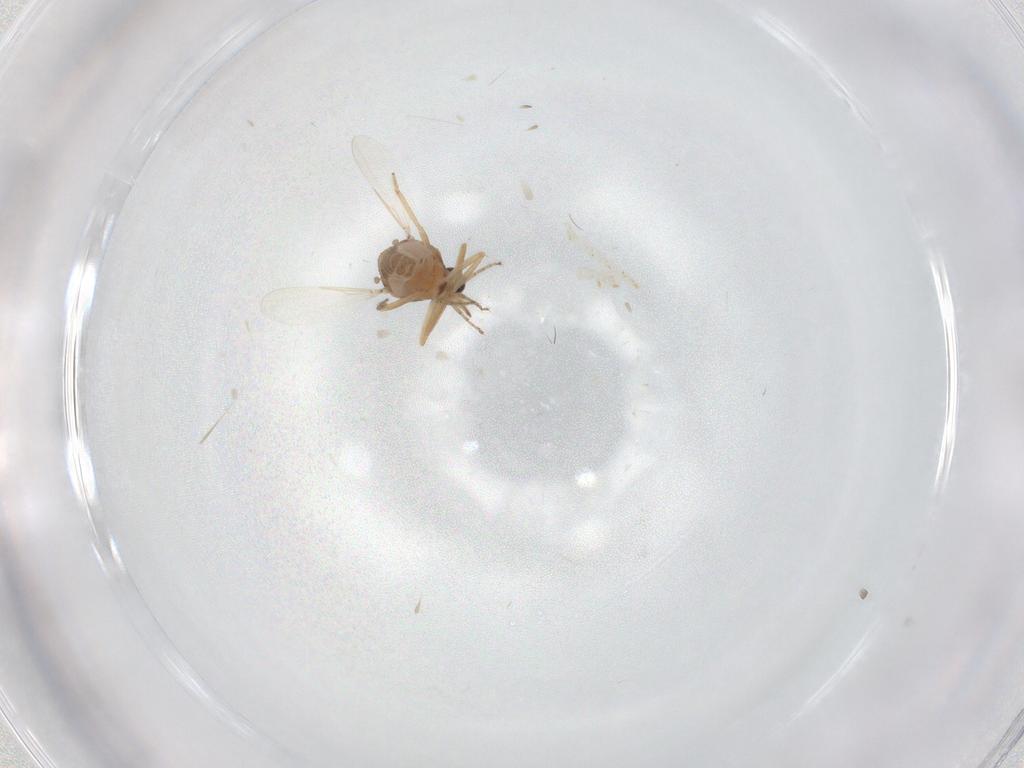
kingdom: Animalia
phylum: Arthropoda
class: Insecta
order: Diptera
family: Ceratopogonidae
